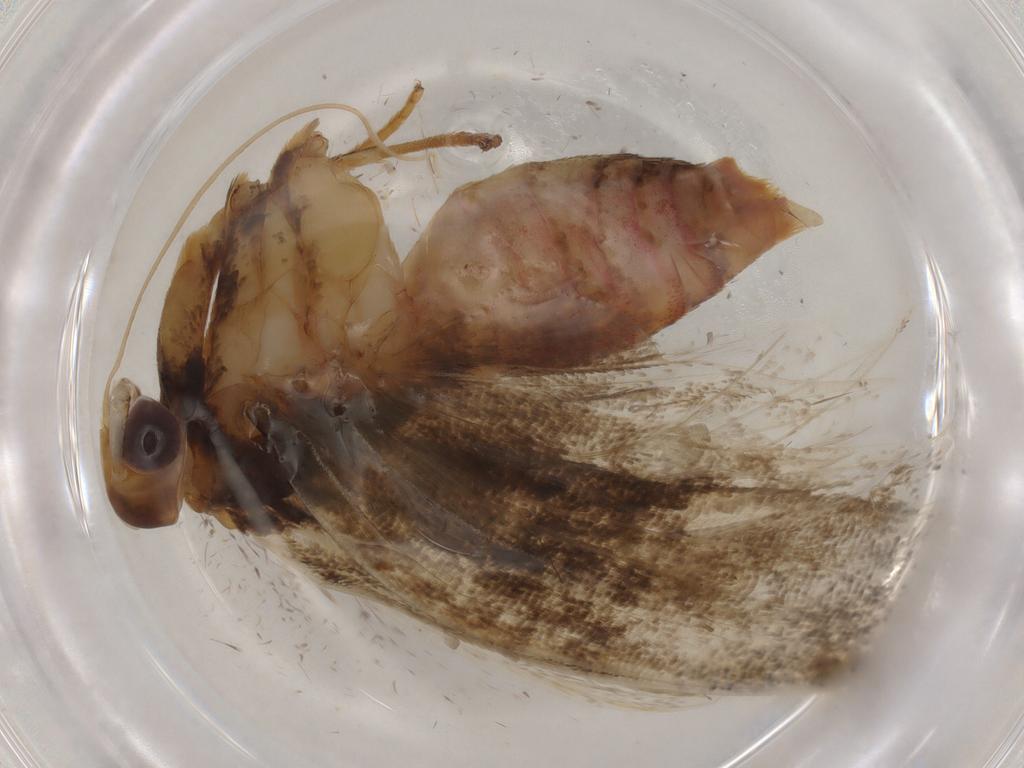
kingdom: Animalia
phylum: Arthropoda
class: Insecta
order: Lepidoptera
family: Lecithoceridae
